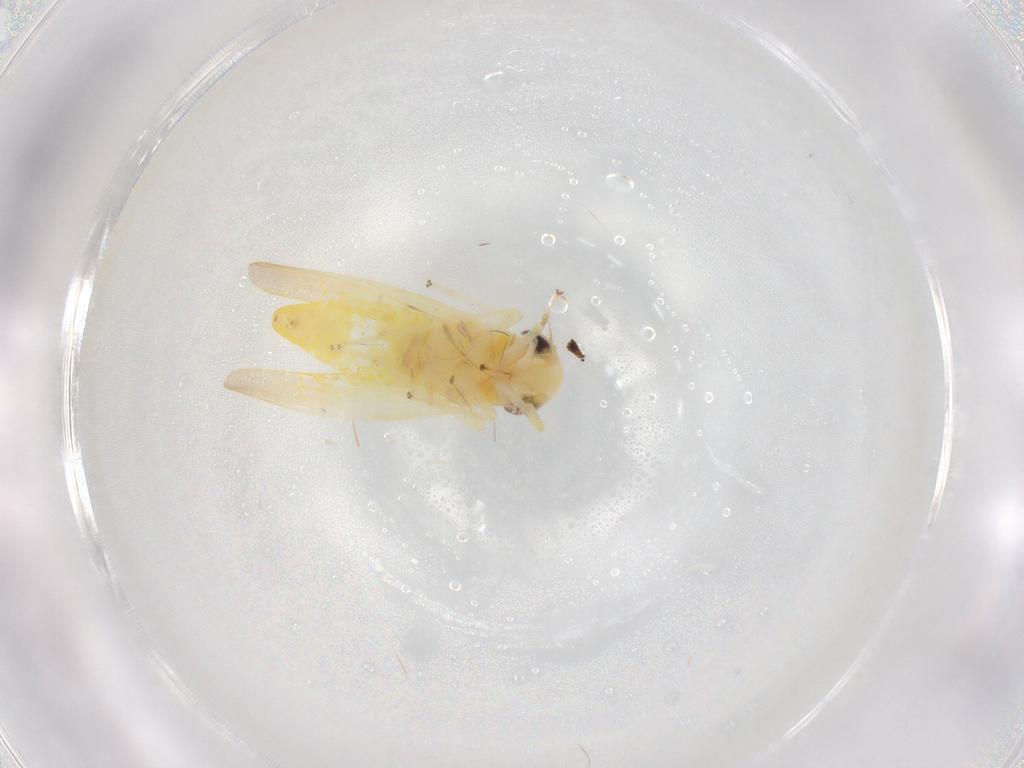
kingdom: Animalia
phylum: Arthropoda
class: Insecta
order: Hemiptera
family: Cicadellidae
